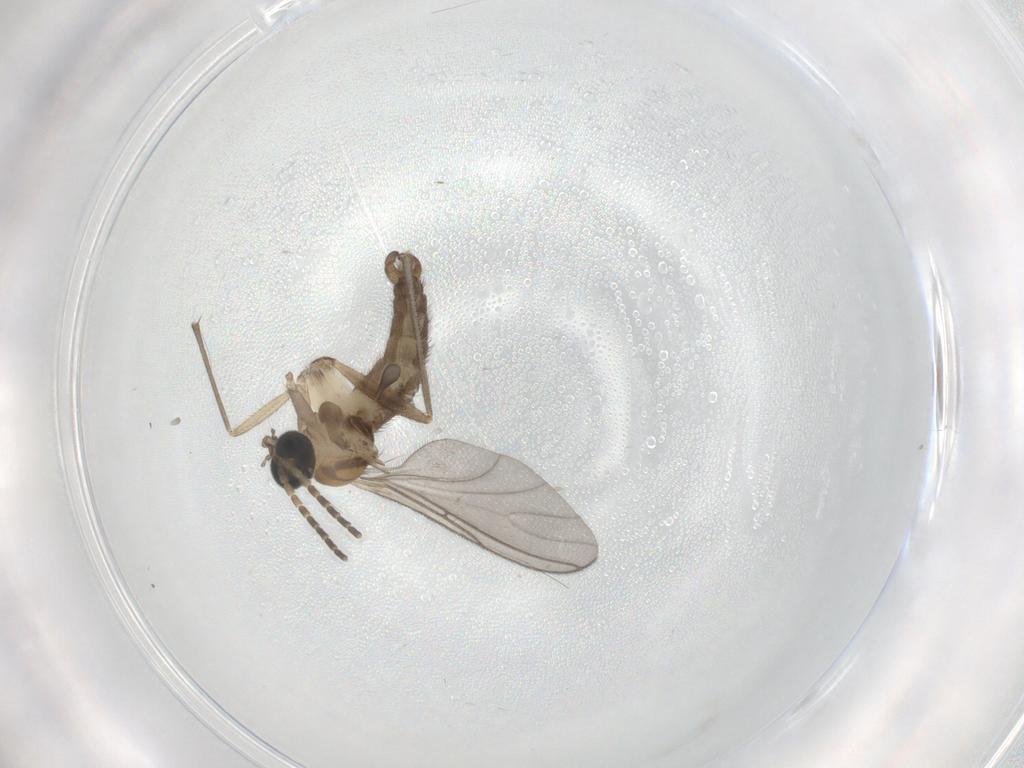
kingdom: Animalia
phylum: Arthropoda
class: Insecta
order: Diptera
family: Sciaridae
